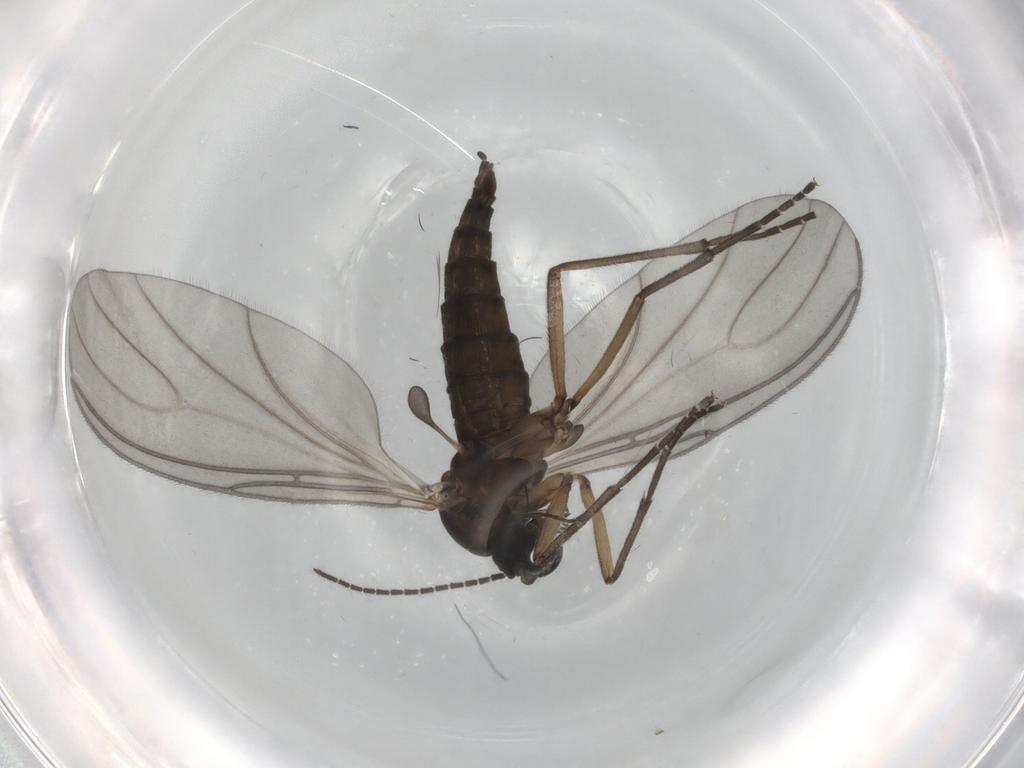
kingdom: Animalia
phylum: Arthropoda
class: Insecta
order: Diptera
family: Sciaridae
